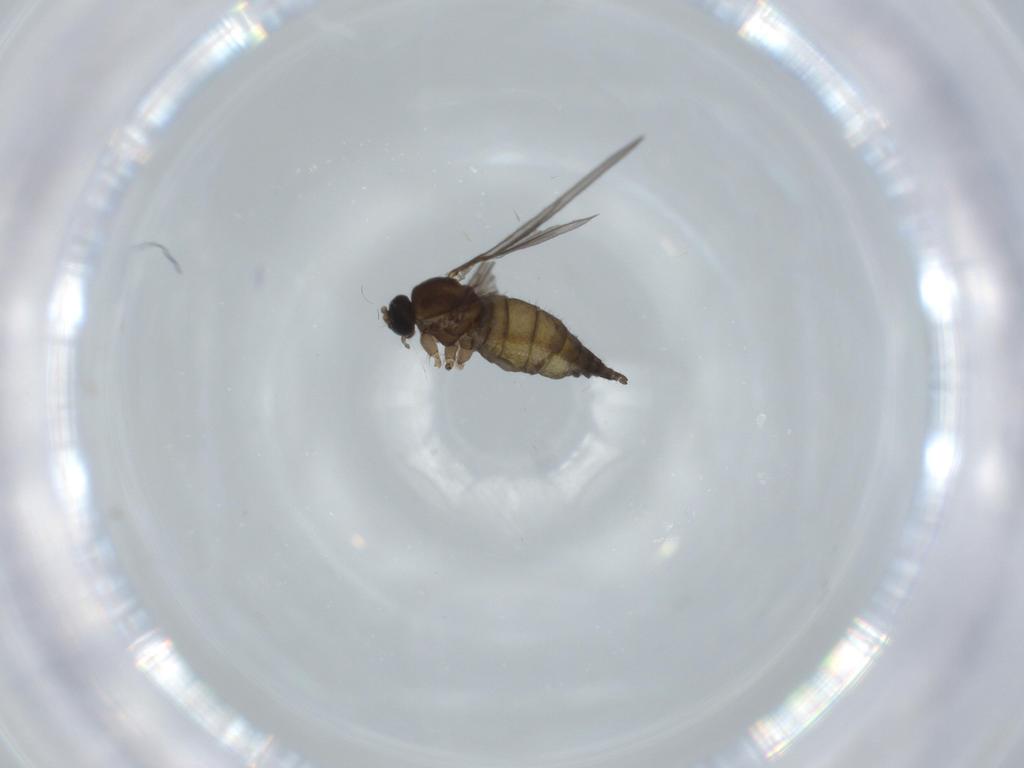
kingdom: Animalia
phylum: Arthropoda
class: Insecta
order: Diptera
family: Sciaridae
